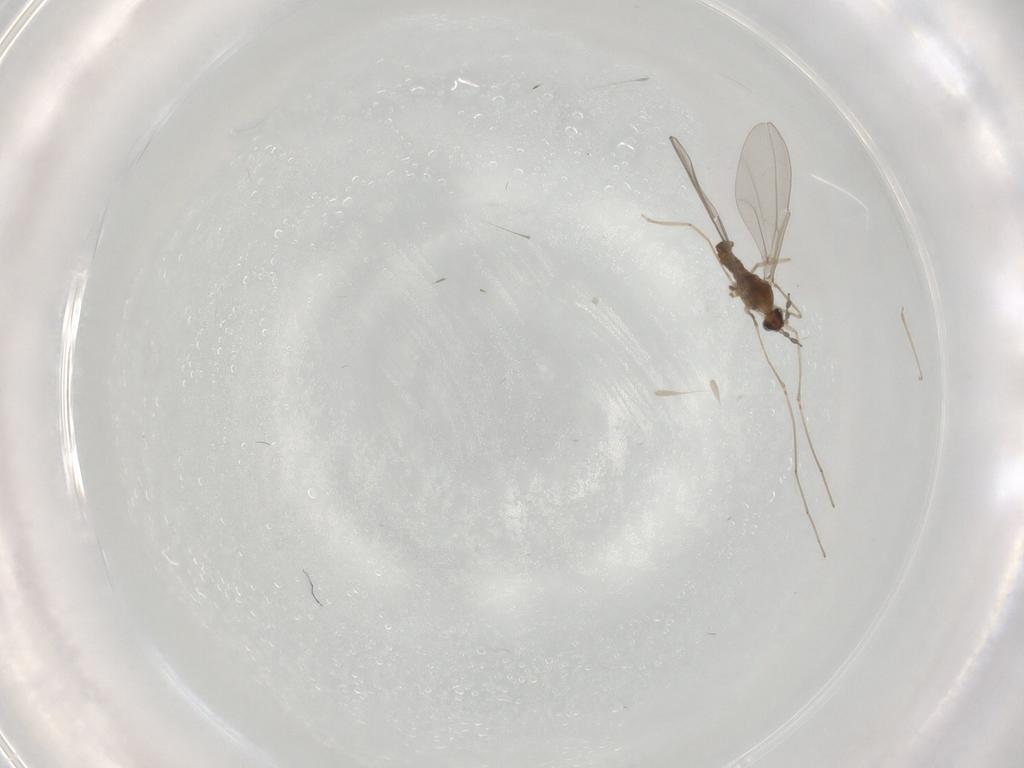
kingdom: Animalia
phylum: Arthropoda
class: Insecta
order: Diptera
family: Cecidomyiidae
